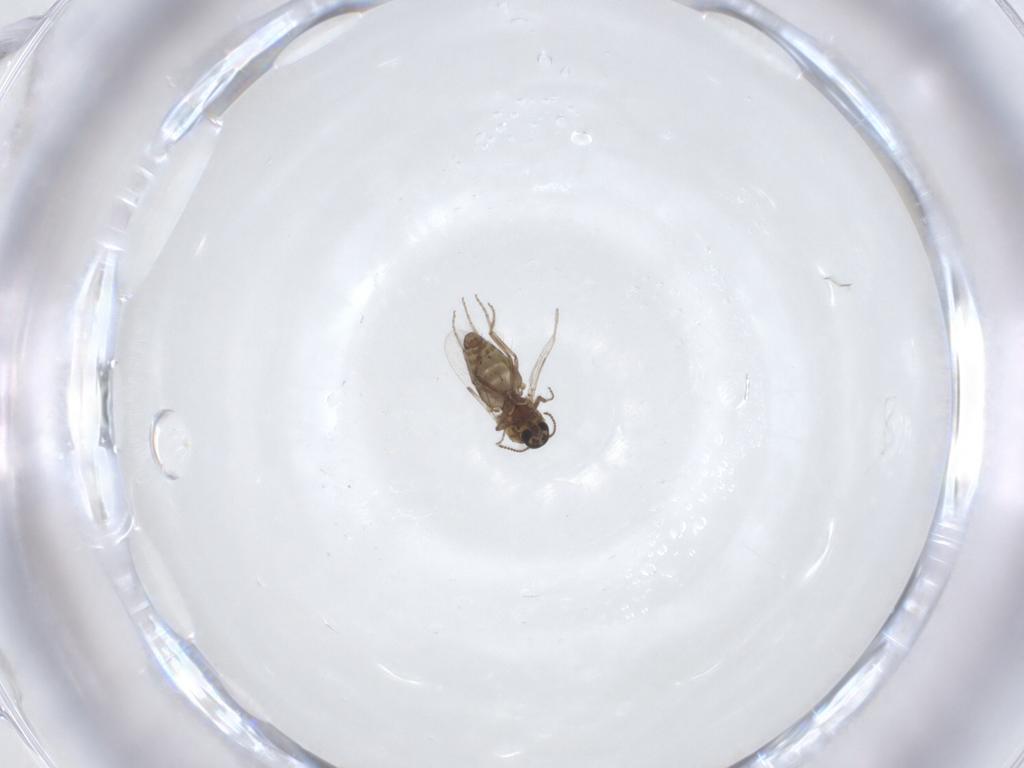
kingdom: Animalia
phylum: Arthropoda
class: Insecta
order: Diptera
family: Ceratopogonidae
